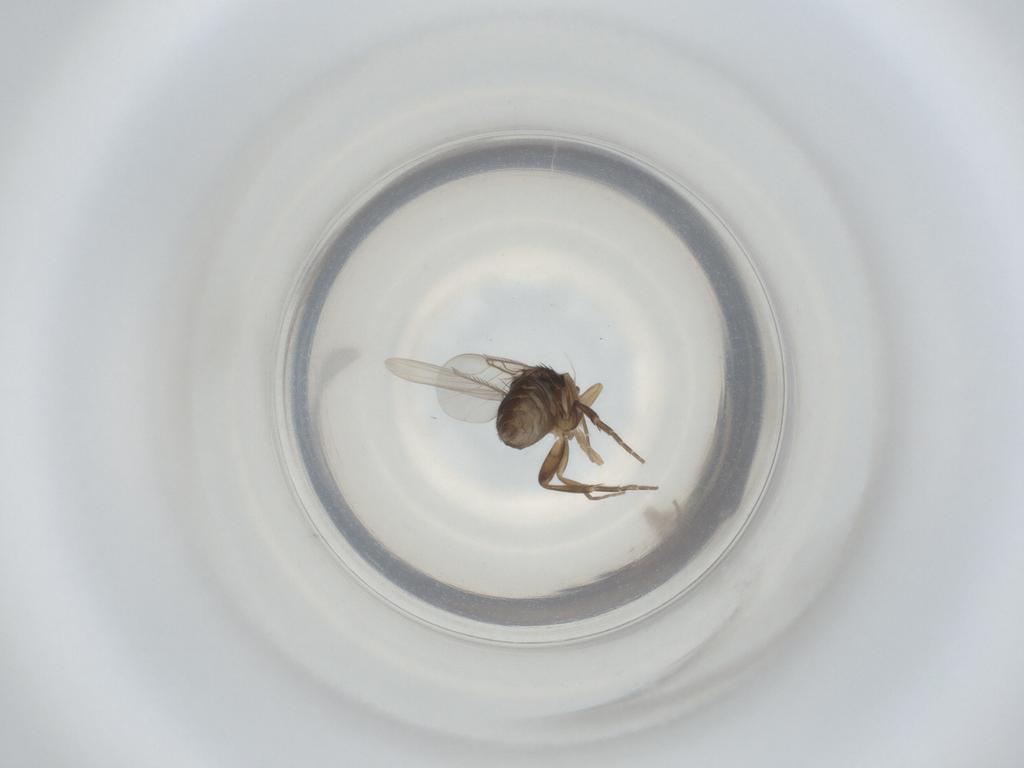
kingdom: Animalia
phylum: Arthropoda
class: Insecta
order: Diptera
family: Phoridae
